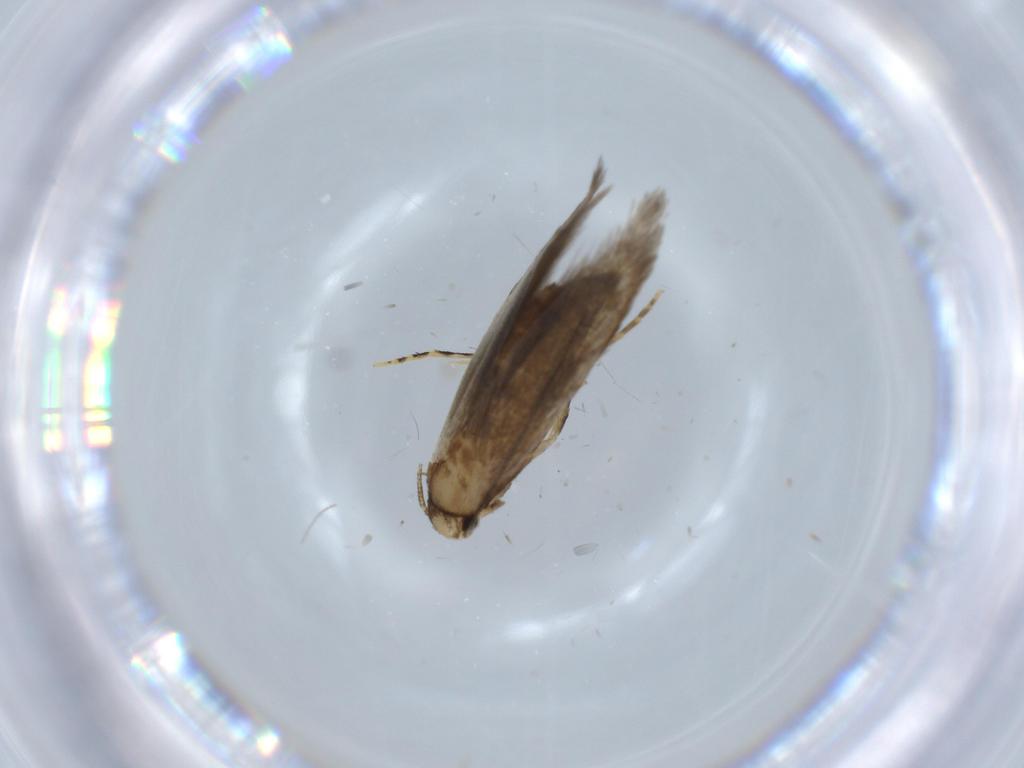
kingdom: Animalia
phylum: Arthropoda
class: Insecta
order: Lepidoptera
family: Tineidae
